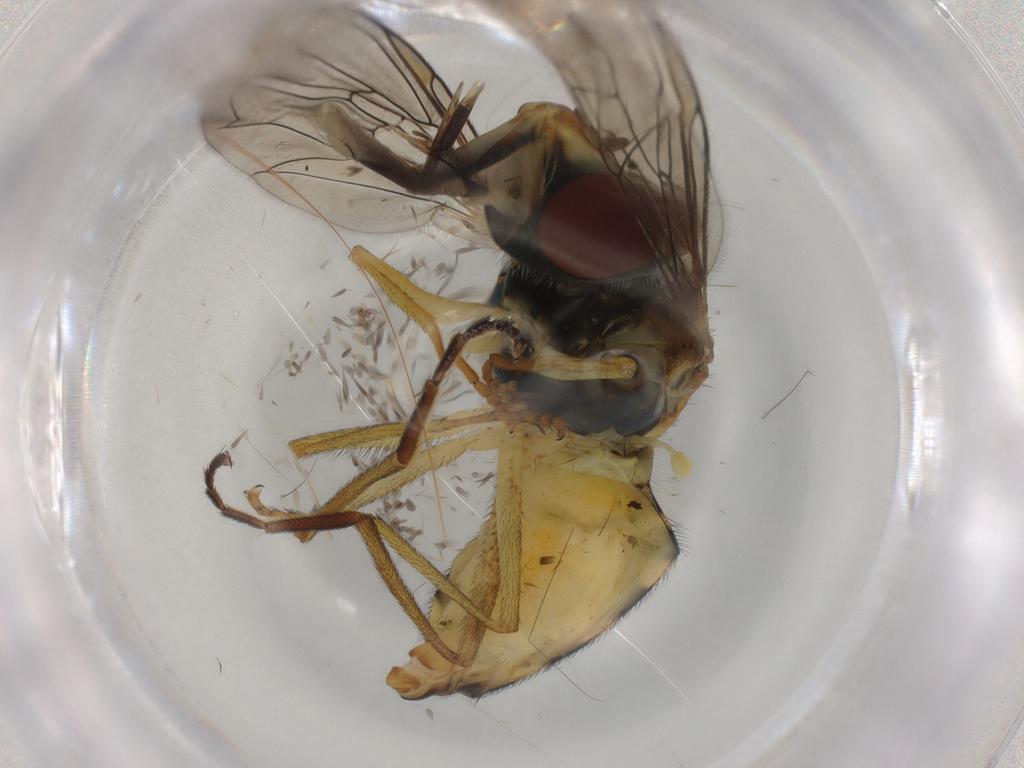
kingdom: Animalia
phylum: Arthropoda
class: Insecta
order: Diptera
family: Syrphidae
